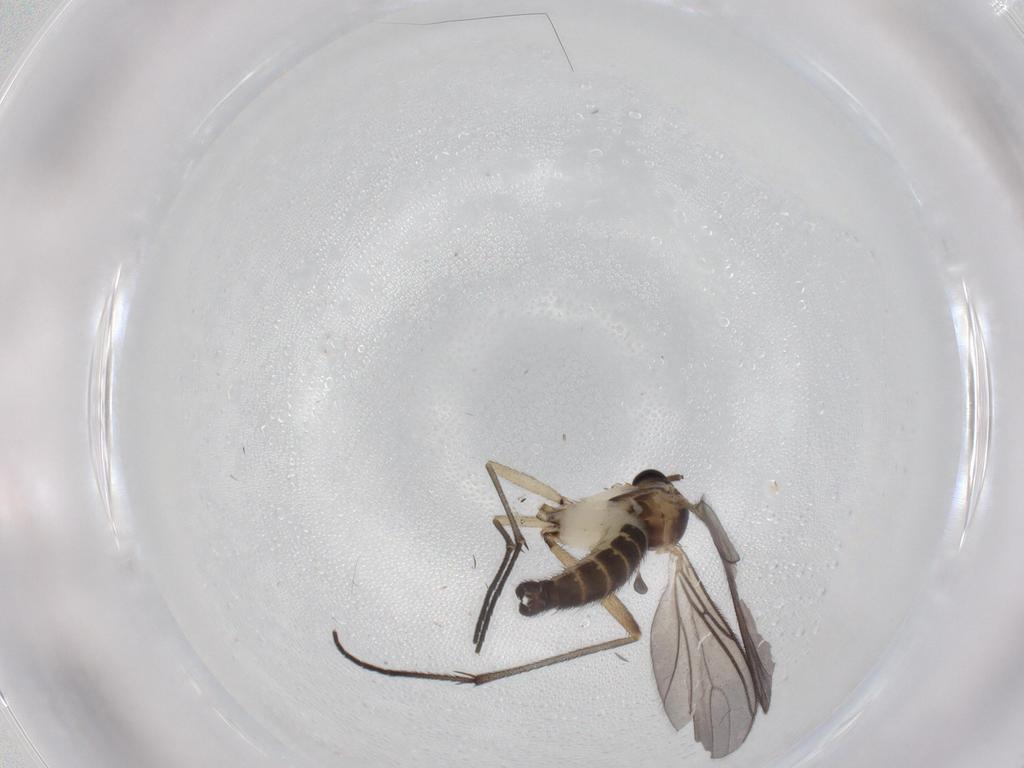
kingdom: Animalia
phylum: Arthropoda
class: Insecta
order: Diptera
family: Sciaridae
